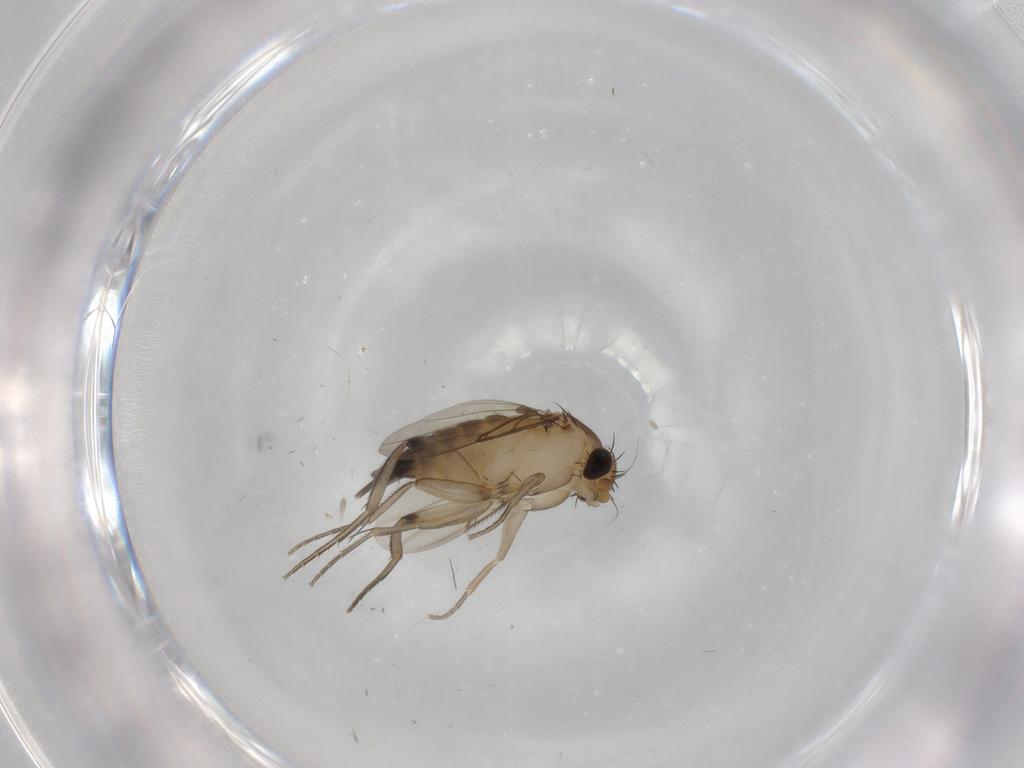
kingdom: Animalia
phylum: Arthropoda
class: Insecta
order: Diptera
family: Phoridae
